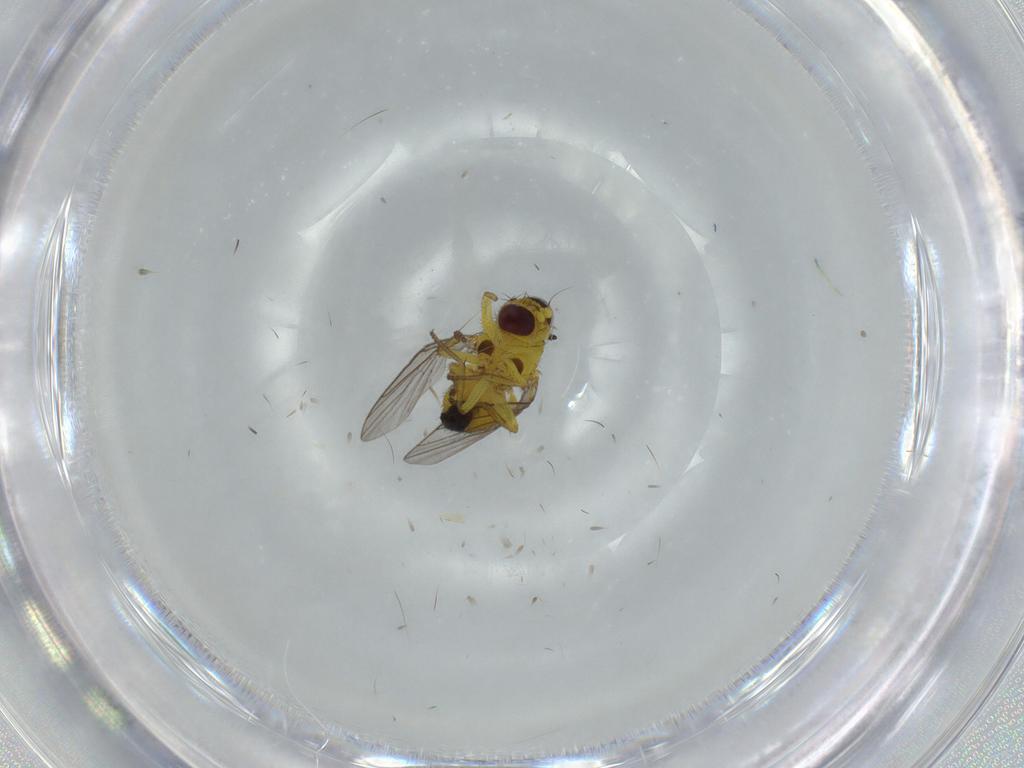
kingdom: Animalia
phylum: Arthropoda
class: Insecta
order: Diptera
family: Sciaridae
